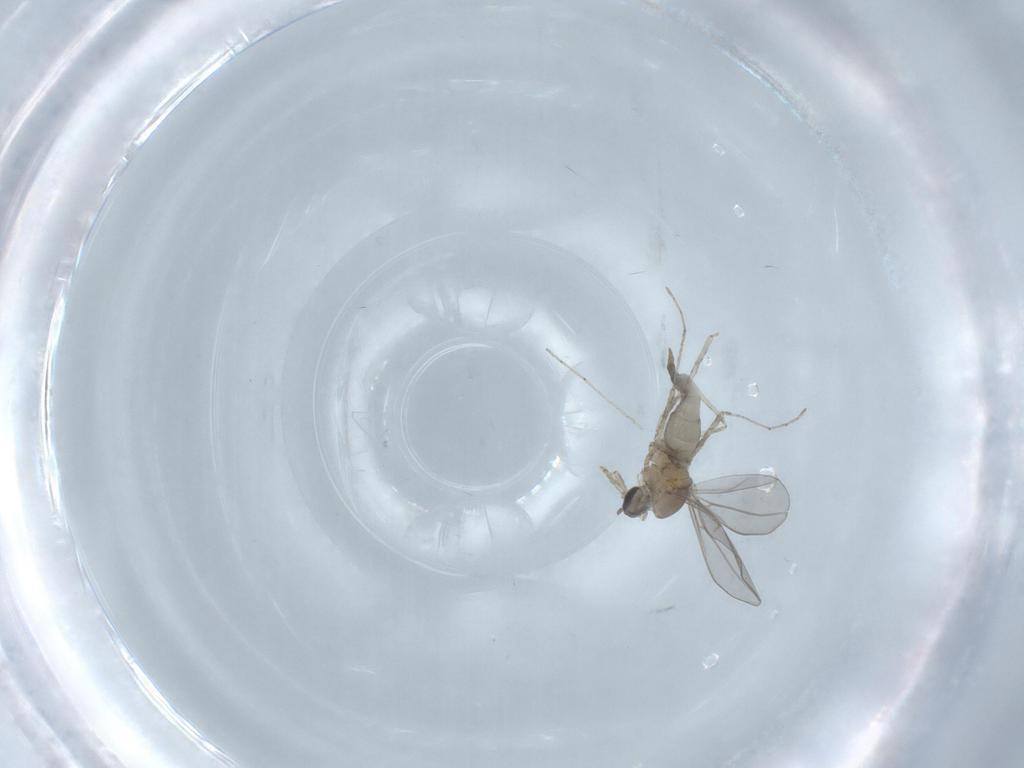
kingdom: Animalia
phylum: Arthropoda
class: Insecta
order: Diptera
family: Cecidomyiidae
